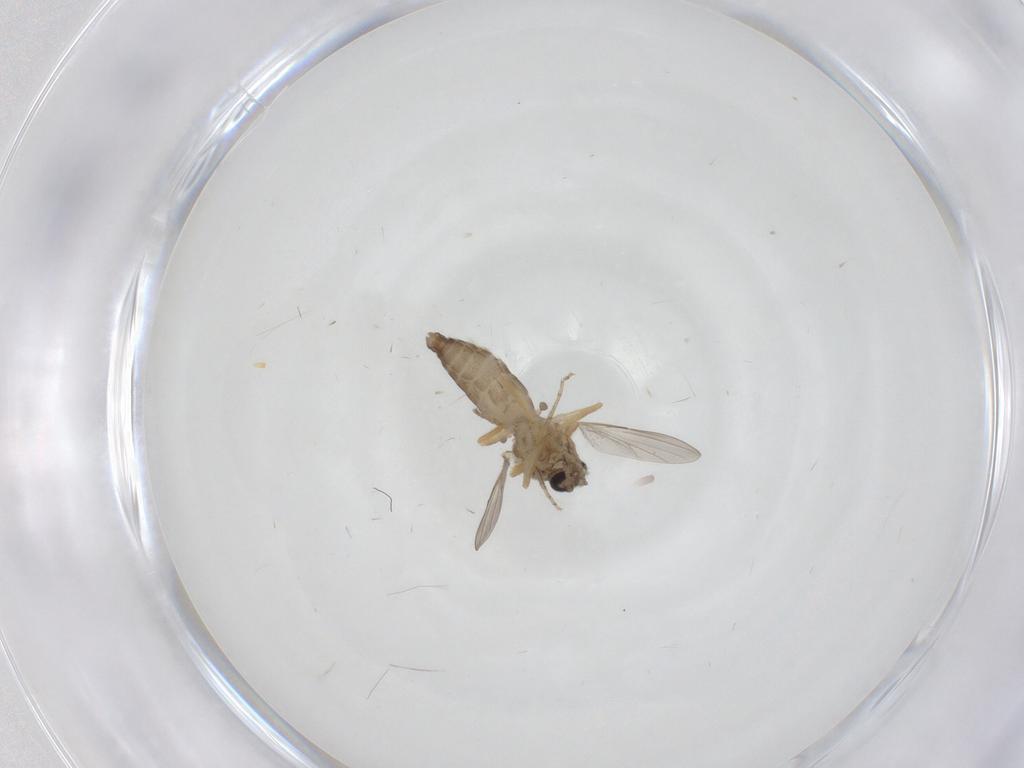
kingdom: Animalia
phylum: Arthropoda
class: Insecta
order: Diptera
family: Ceratopogonidae
